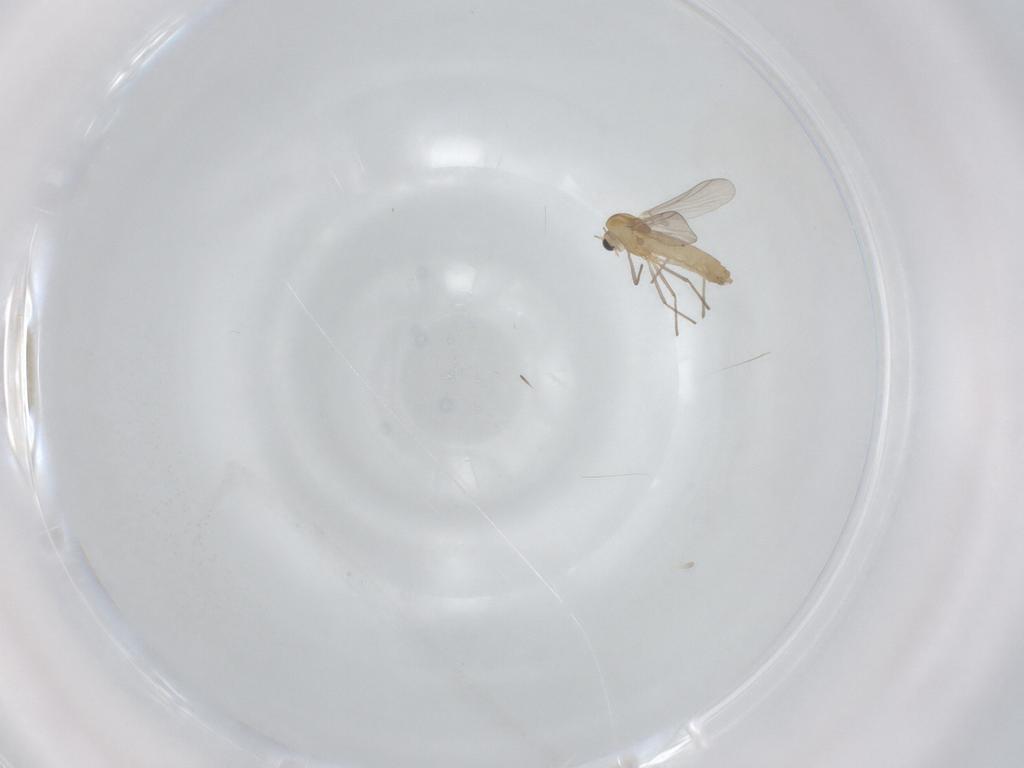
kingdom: Animalia
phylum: Arthropoda
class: Insecta
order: Diptera
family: Chironomidae
